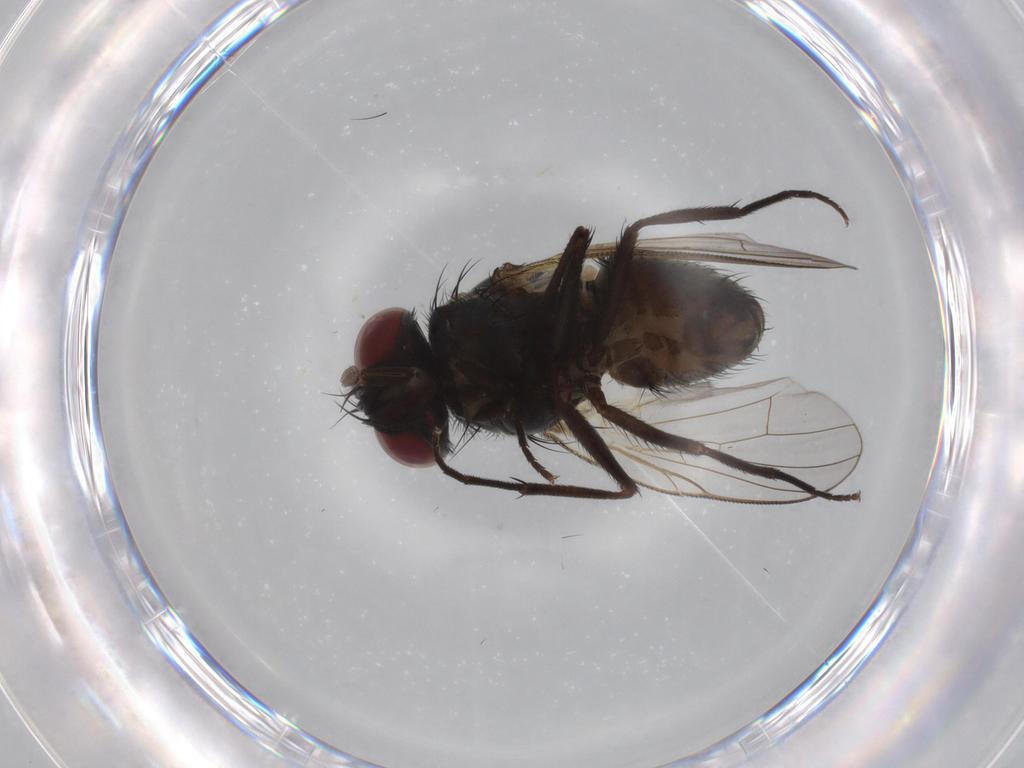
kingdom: Animalia
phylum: Arthropoda
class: Insecta
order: Diptera
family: Muscidae
